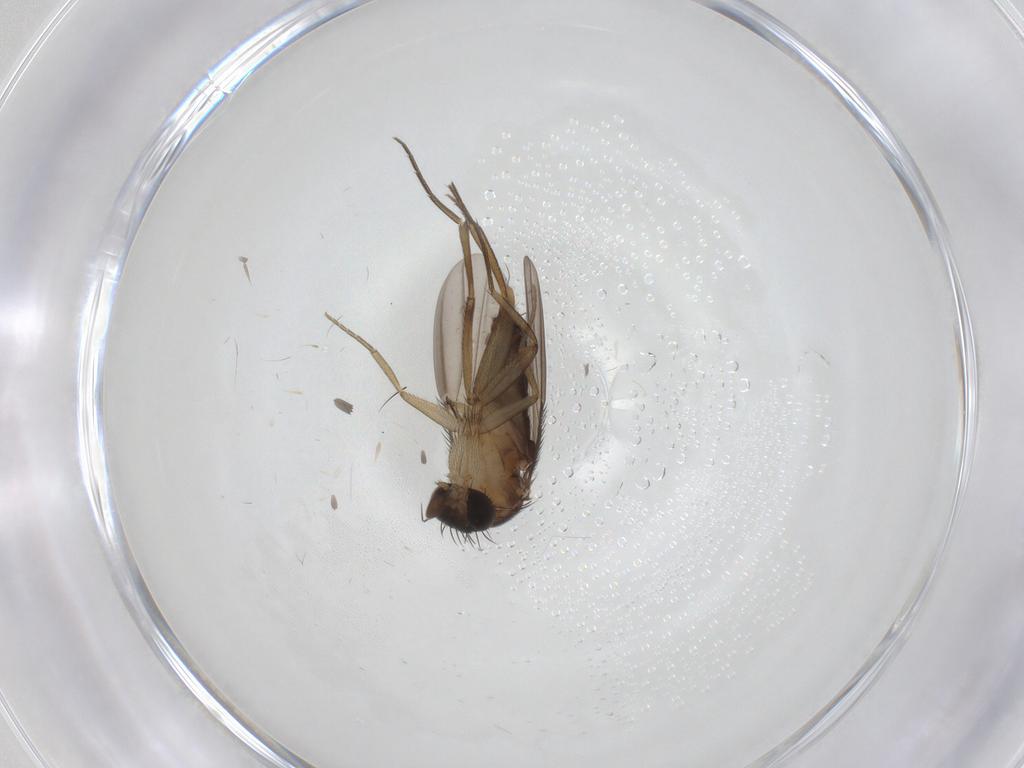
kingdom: Animalia
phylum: Arthropoda
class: Insecta
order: Diptera
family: Phoridae
